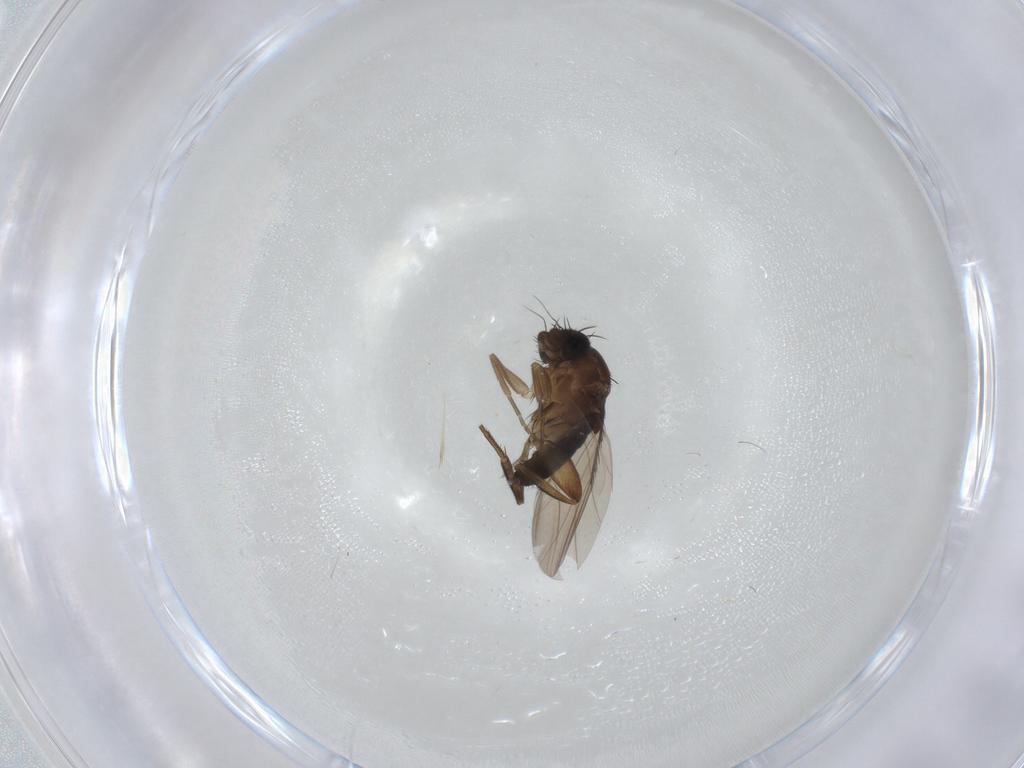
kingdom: Animalia
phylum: Arthropoda
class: Insecta
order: Diptera
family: Phoridae
